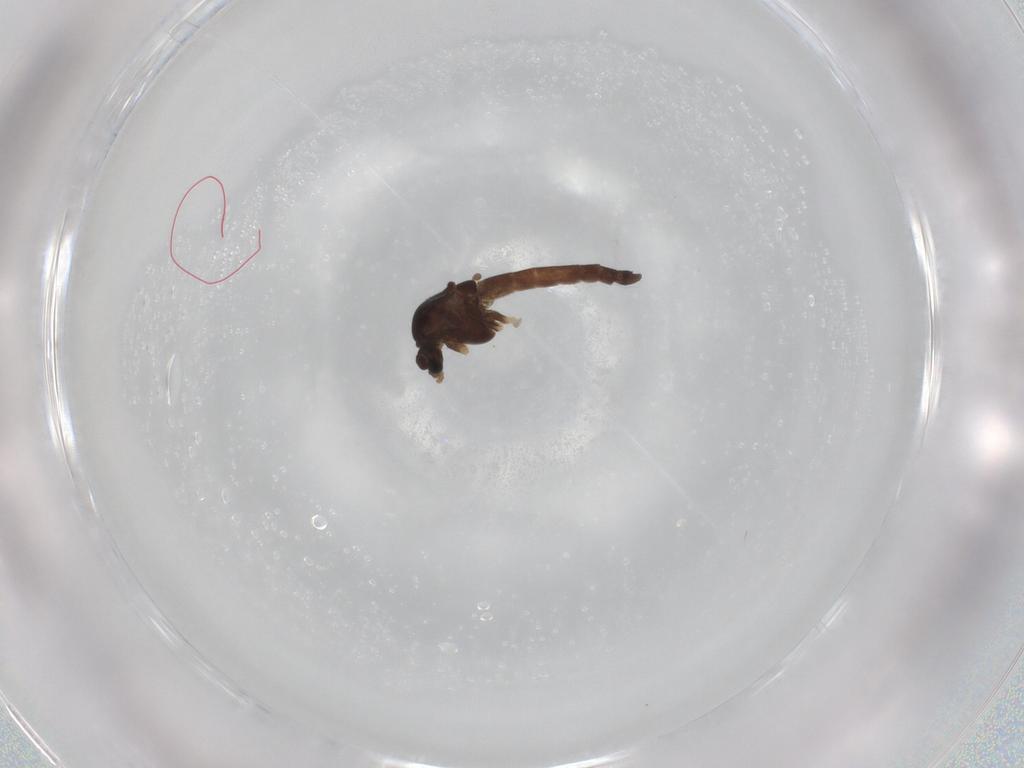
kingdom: Animalia
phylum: Arthropoda
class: Insecta
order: Diptera
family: Chironomidae
